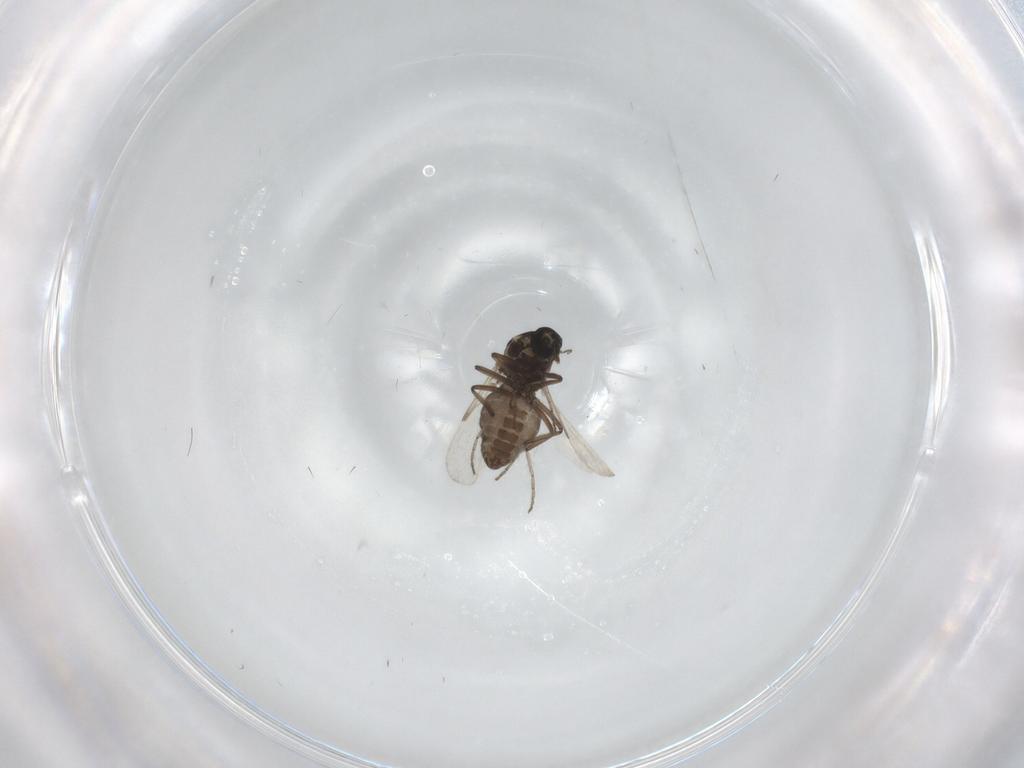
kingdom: Animalia
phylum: Arthropoda
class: Insecta
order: Diptera
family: Ceratopogonidae
